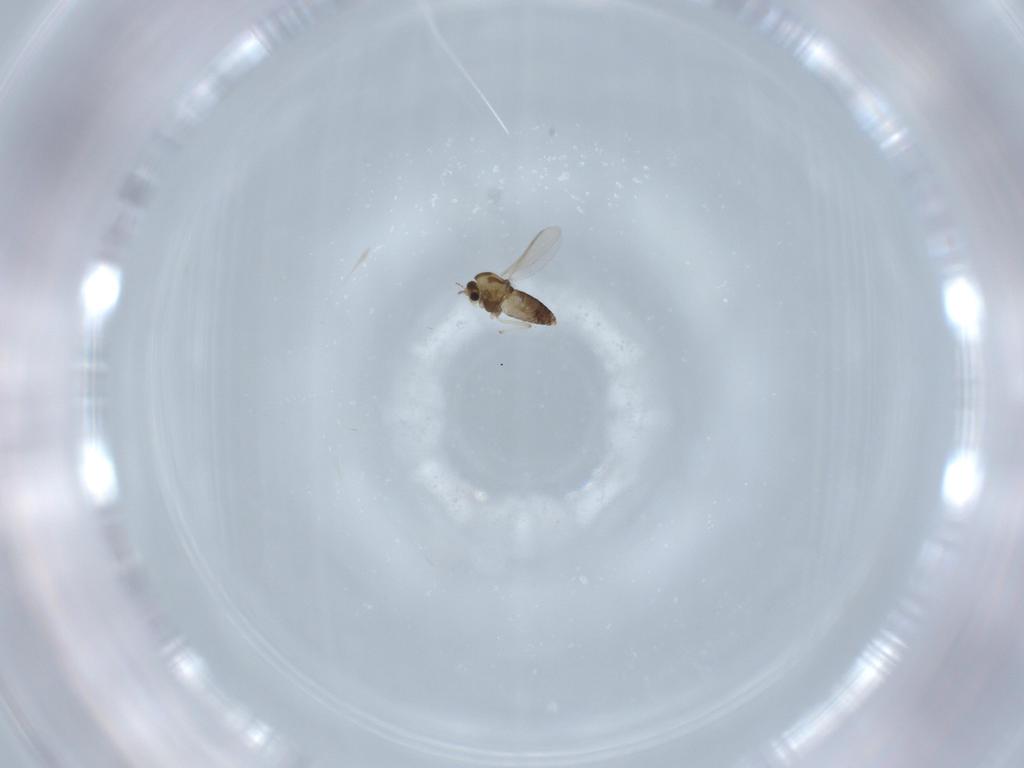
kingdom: Animalia
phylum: Arthropoda
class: Insecta
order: Diptera
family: Chironomidae
